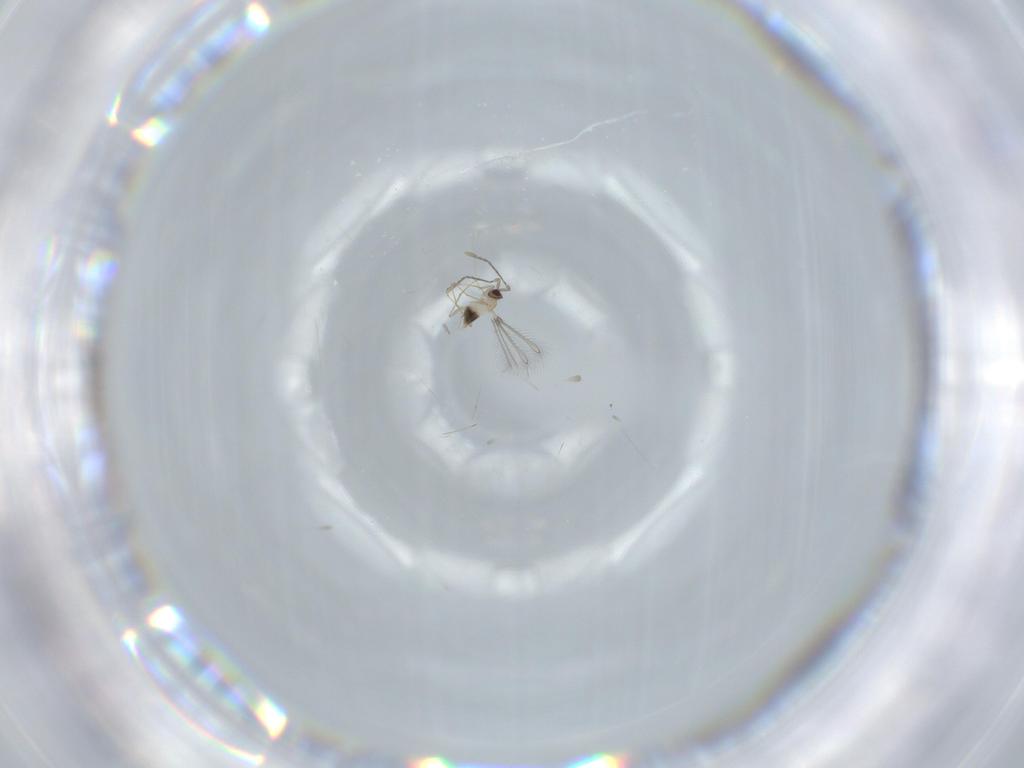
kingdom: Animalia
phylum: Arthropoda
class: Insecta
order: Hymenoptera
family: Mymaridae
